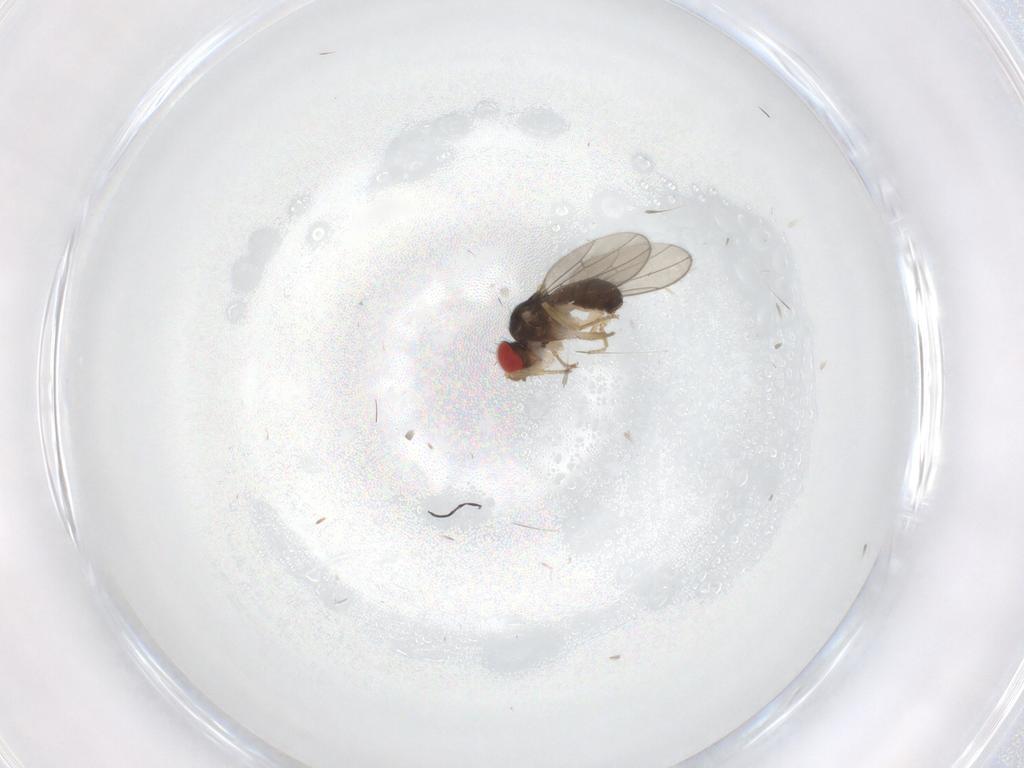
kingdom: Animalia
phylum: Arthropoda
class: Insecta
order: Diptera
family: Drosophilidae
